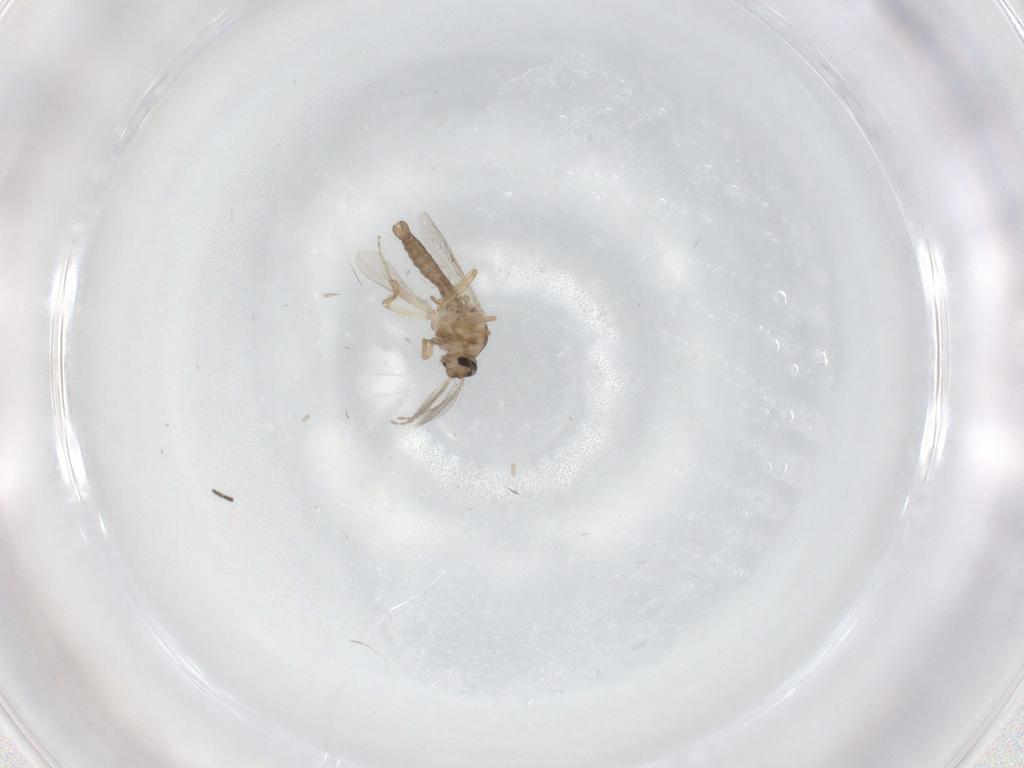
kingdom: Animalia
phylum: Arthropoda
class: Insecta
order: Diptera
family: Ceratopogonidae
